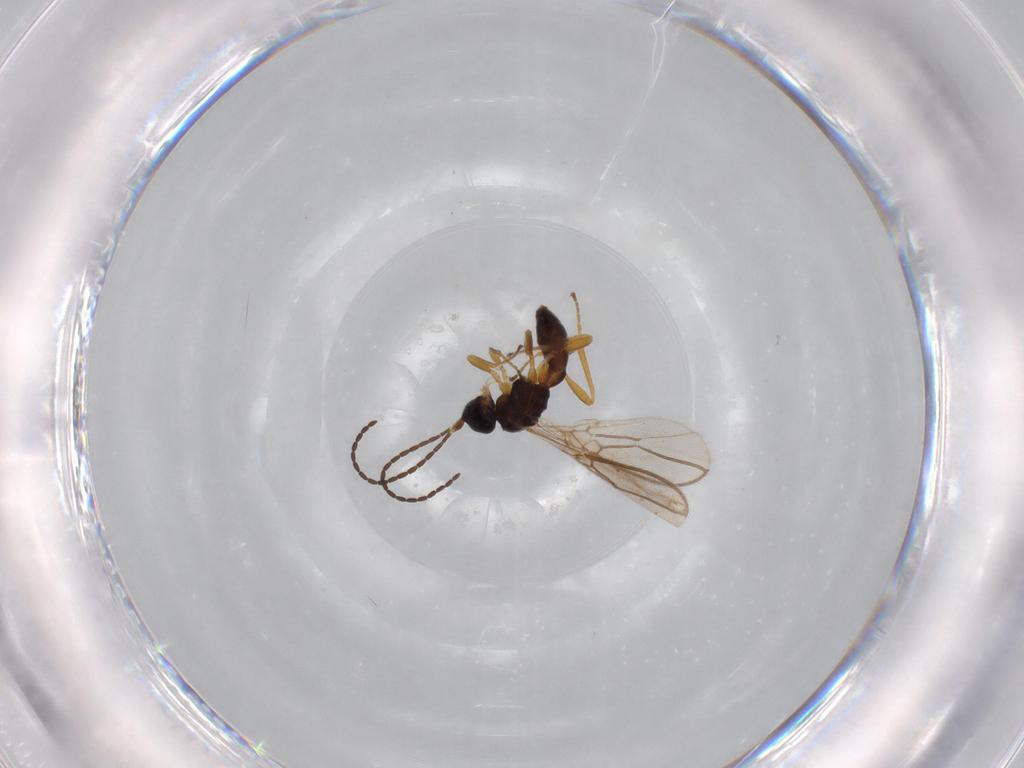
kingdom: Animalia
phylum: Arthropoda
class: Insecta
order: Hymenoptera
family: Braconidae
